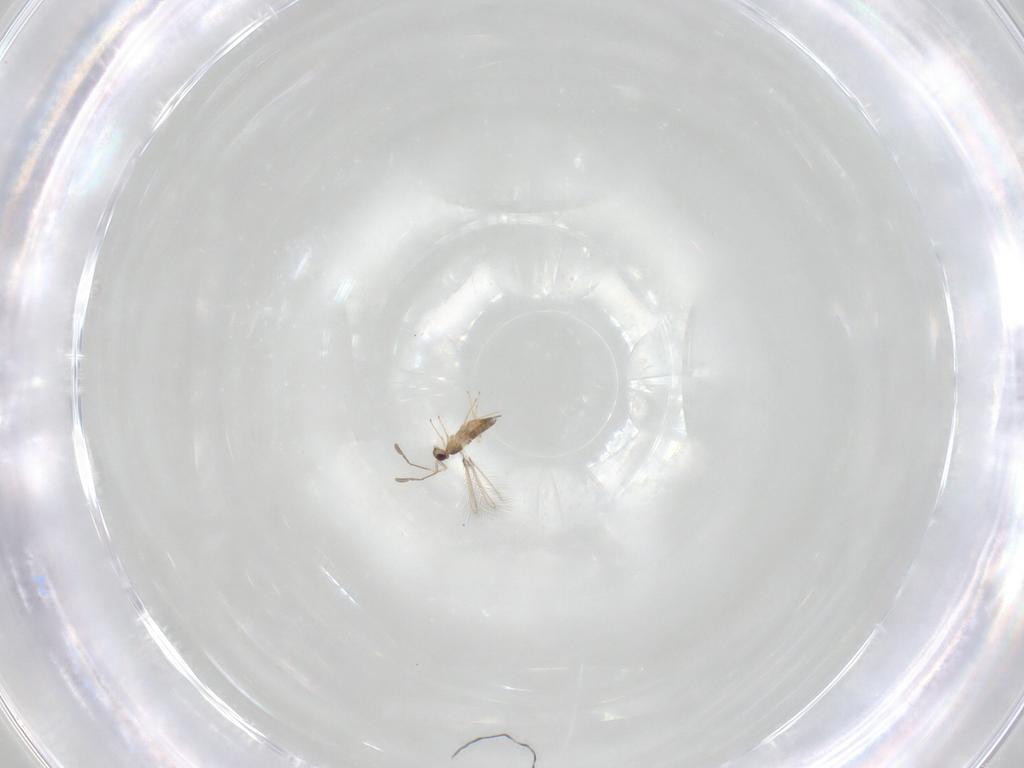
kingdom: Animalia
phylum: Arthropoda
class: Insecta
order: Hymenoptera
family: Mymaridae
